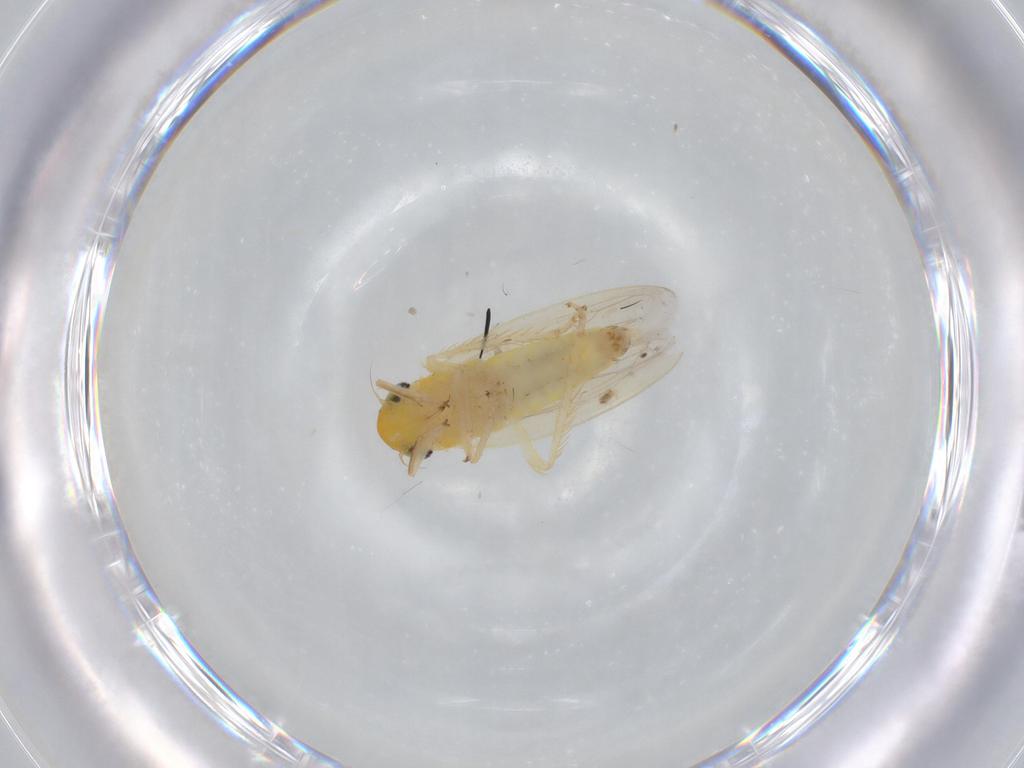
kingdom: Animalia
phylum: Arthropoda
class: Insecta
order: Hemiptera
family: Cicadellidae
